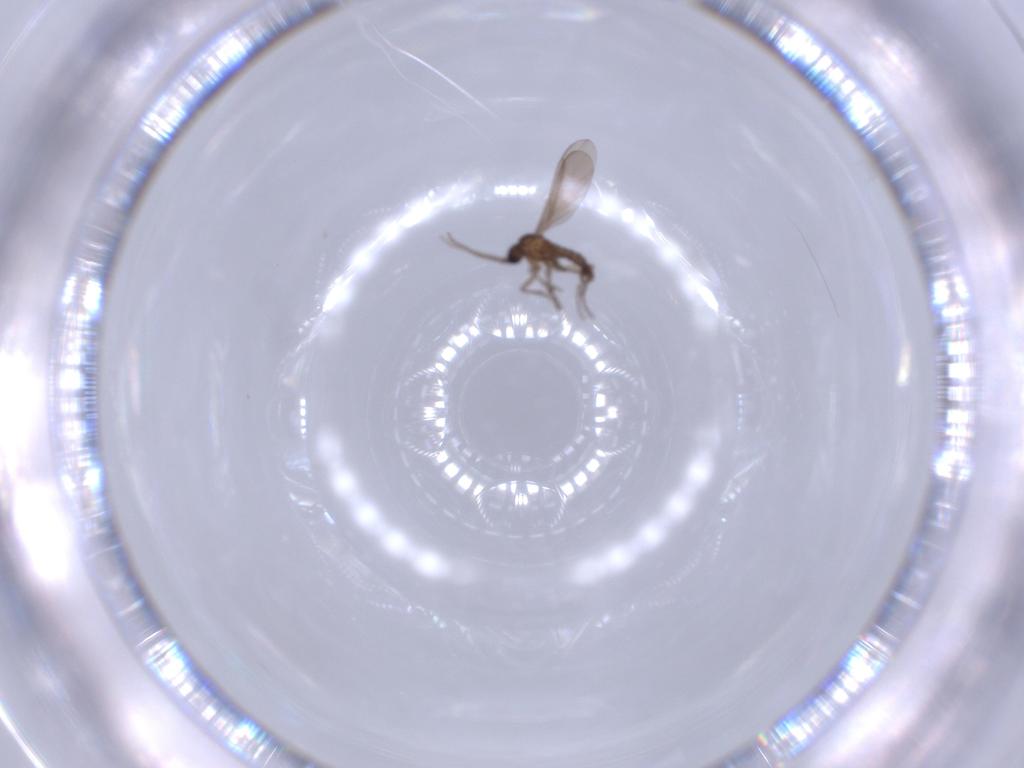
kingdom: Animalia
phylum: Arthropoda
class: Insecta
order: Diptera
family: Sciaridae
